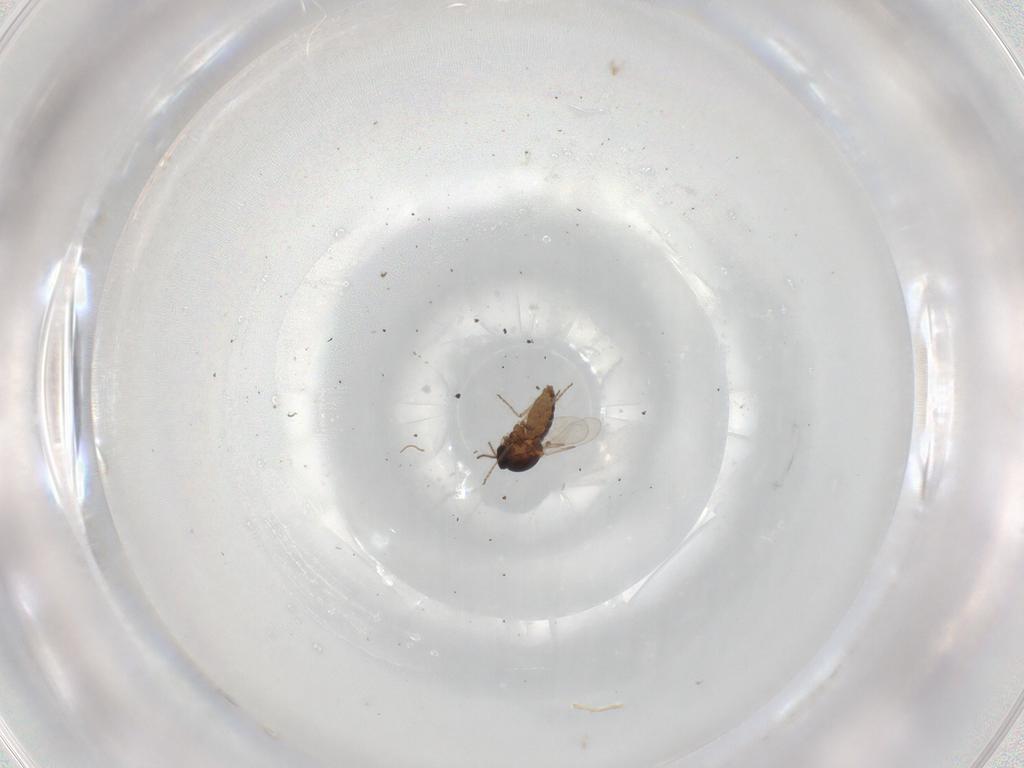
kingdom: Animalia
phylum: Arthropoda
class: Insecta
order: Diptera
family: Ceratopogonidae
